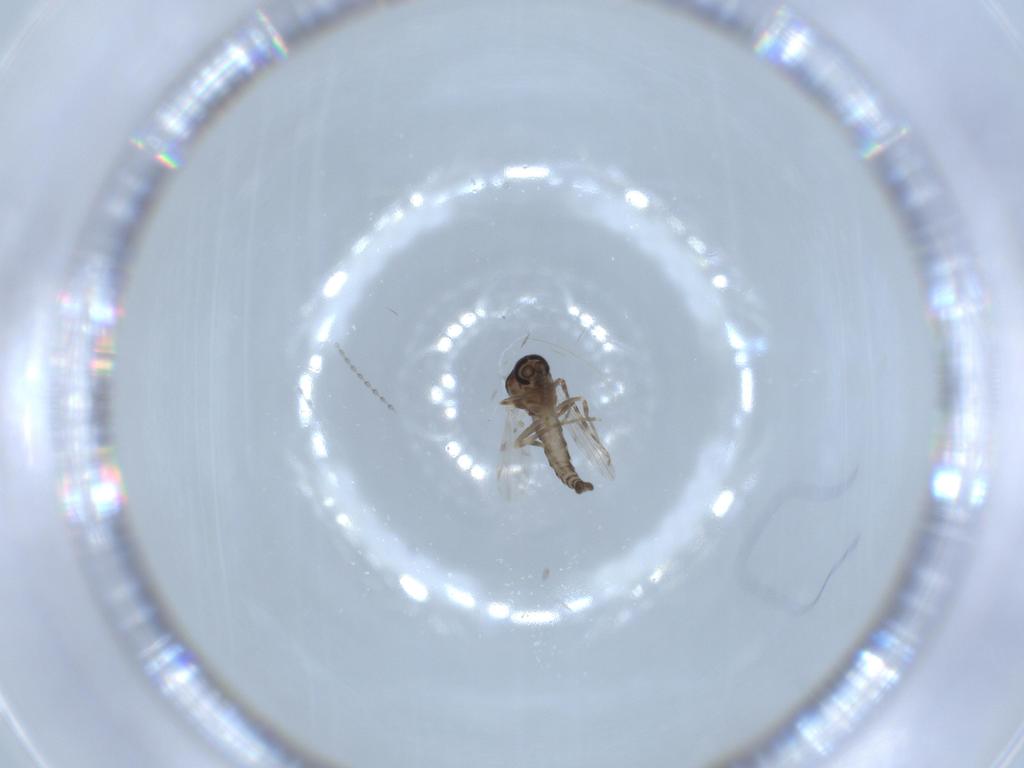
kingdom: Animalia
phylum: Arthropoda
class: Insecta
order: Diptera
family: Ceratopogonidae
